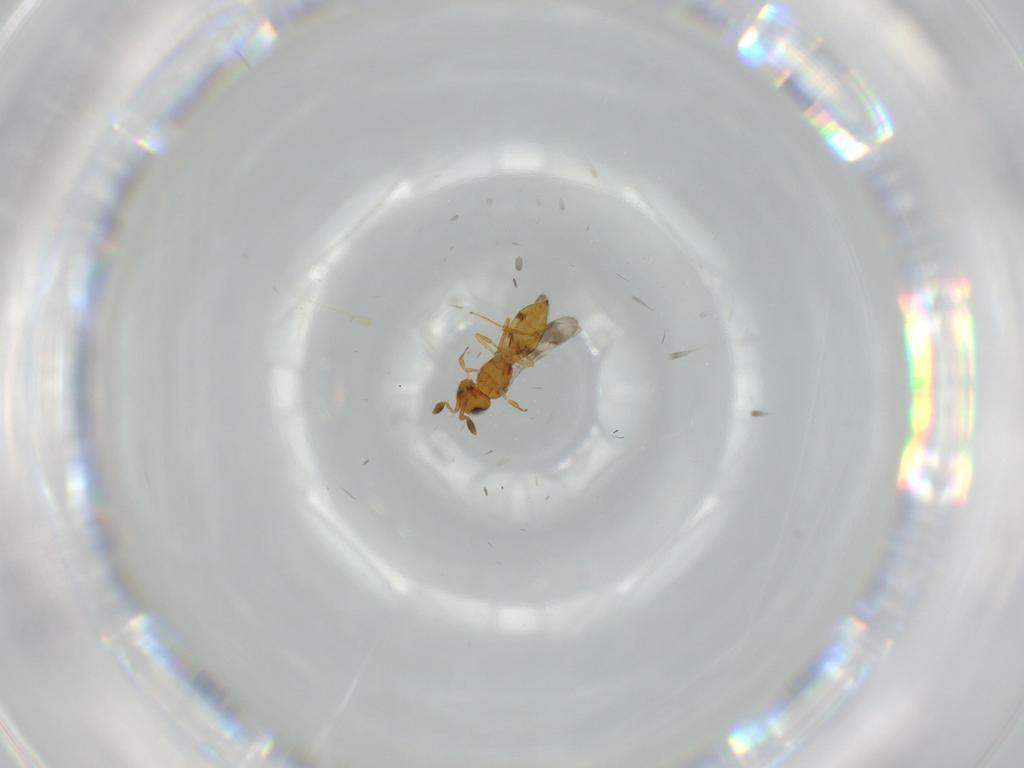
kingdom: Animalia
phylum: Arthropoda
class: Insecta
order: Hymenoptera
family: Scelionidae
